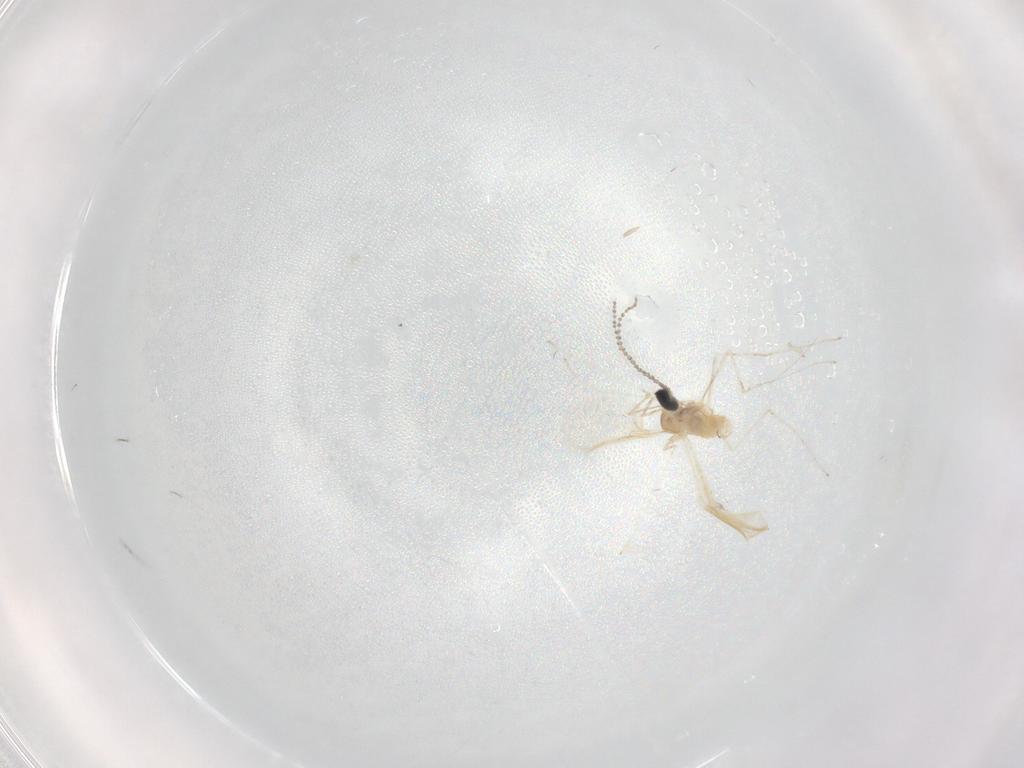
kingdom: Animalia
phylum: Arthropoda
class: Insecta
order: Diptera
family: Cecidomyiidae
